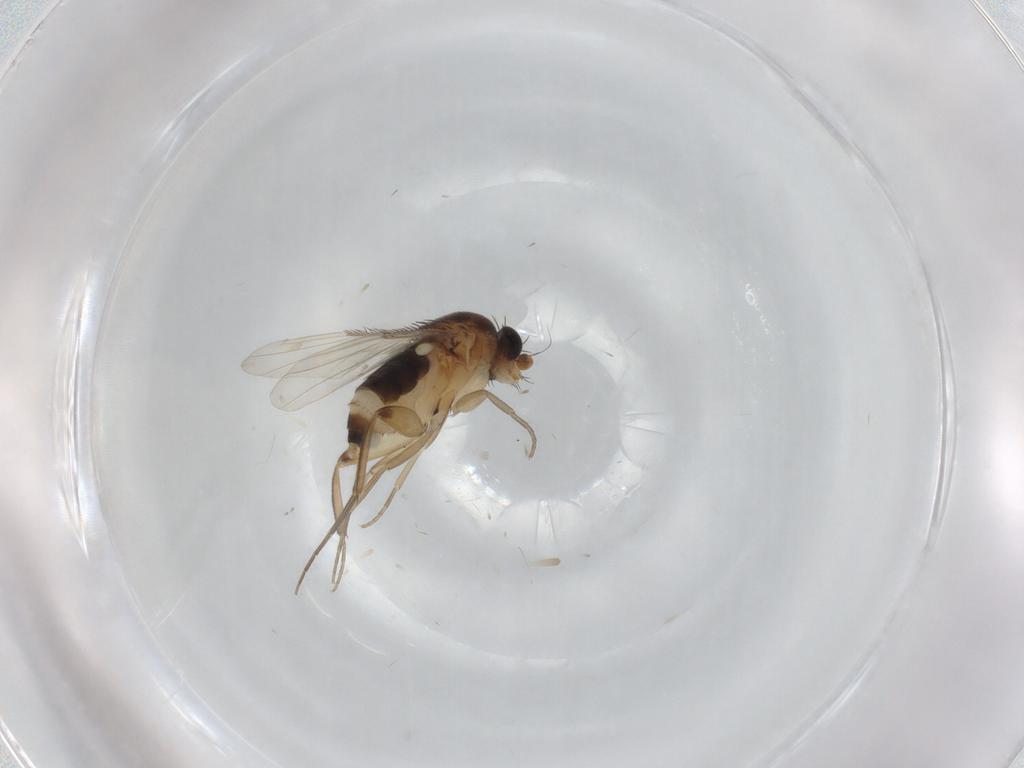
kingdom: Animalia
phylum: Arthropoda
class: Insecta
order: Diptera
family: Phoridae
